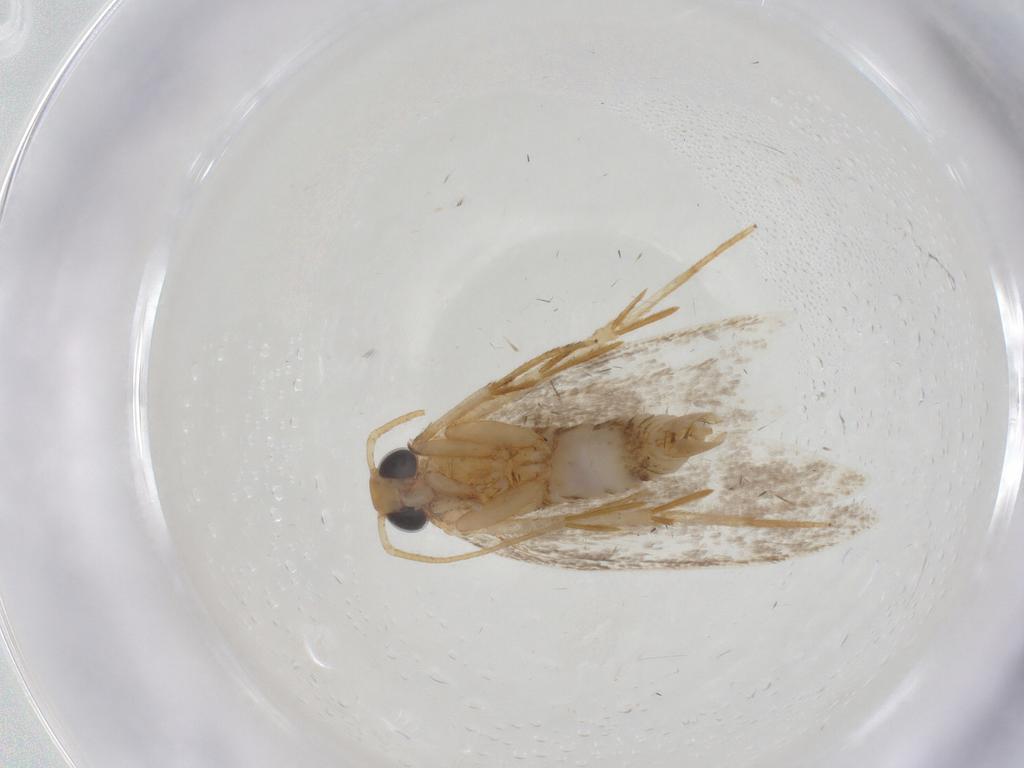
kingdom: Animalia
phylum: Arthropoda
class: Insecta
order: Lepidoptera
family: Oecophoridae
